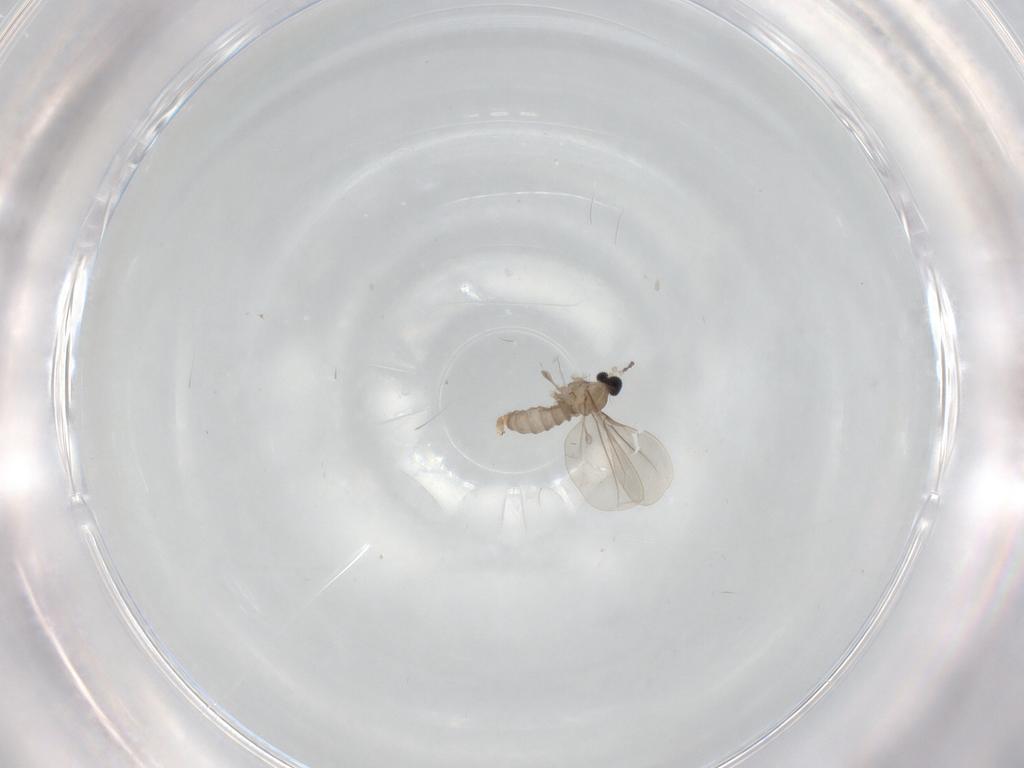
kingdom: Animalia
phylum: Arthropoda
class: Insecta
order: Diptera
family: Cecidomyiidae
